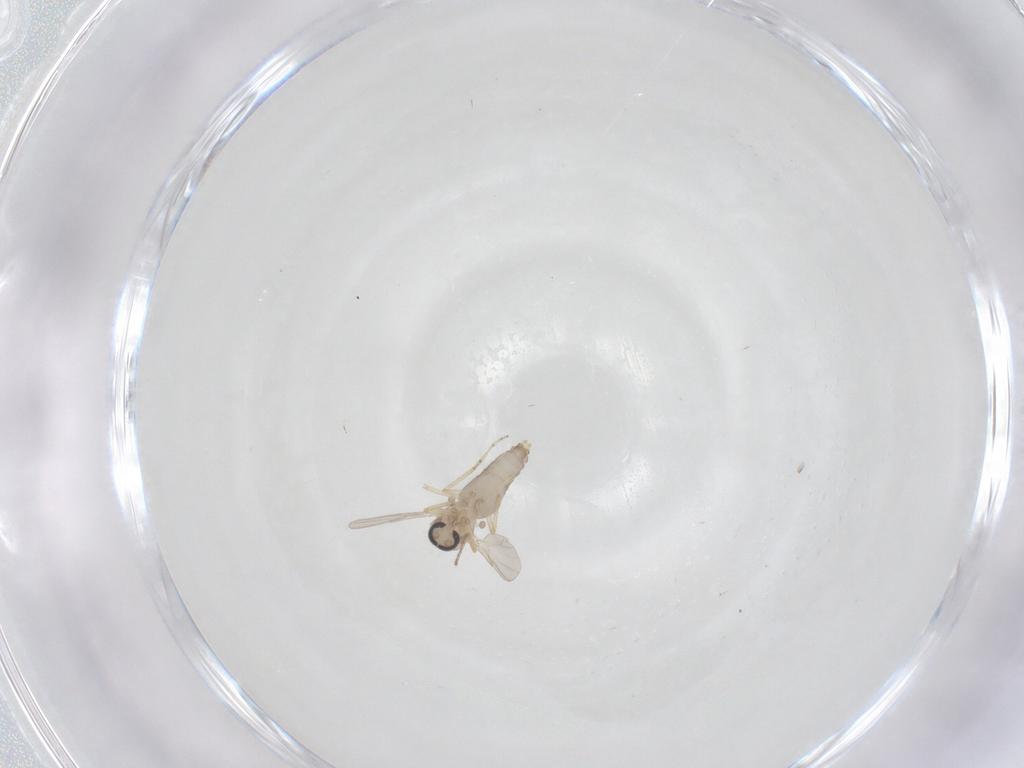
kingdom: Animalia
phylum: Arthropoda
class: Insecta
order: Diptera
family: Ceratopogonidae
